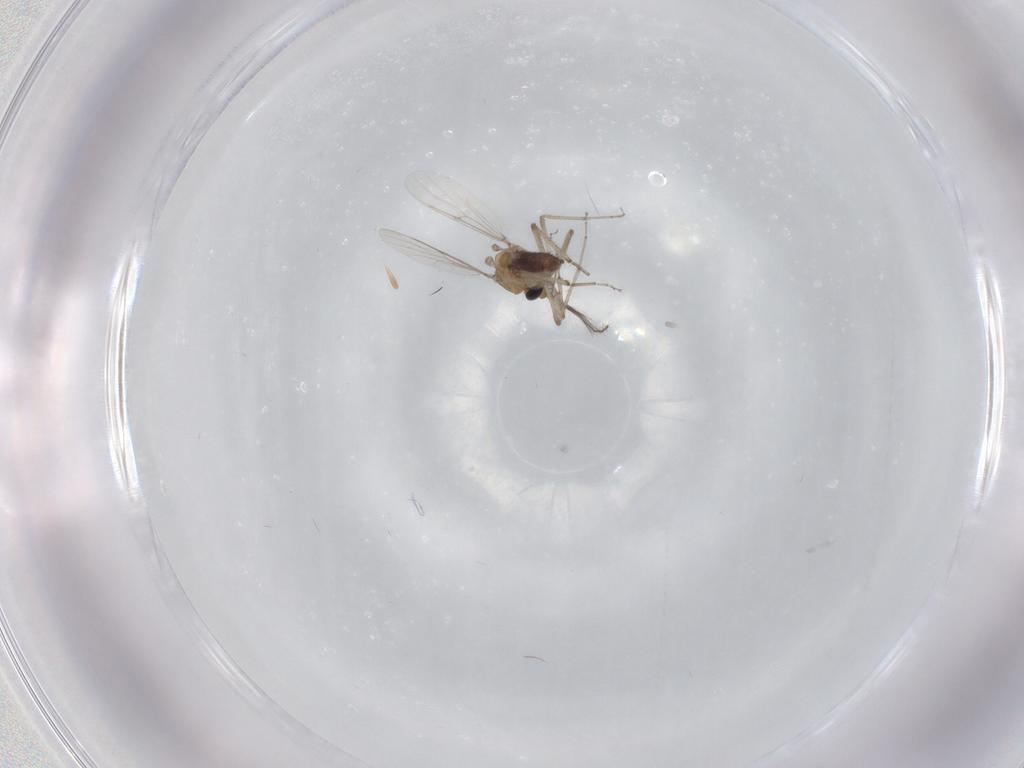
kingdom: Animalia
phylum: Arthropoda
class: Insecta
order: Diptera
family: Ceratopogonidae
